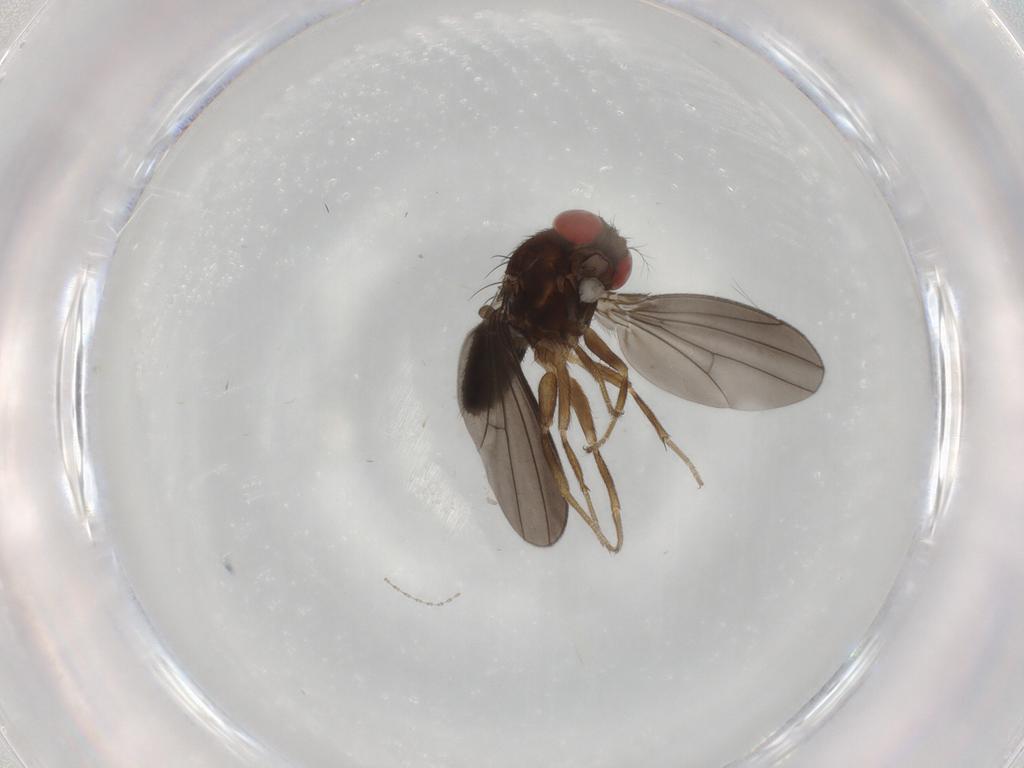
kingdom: Animalia
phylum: Arthropoda
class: Insecta
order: Diptera
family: Drosophilidae
